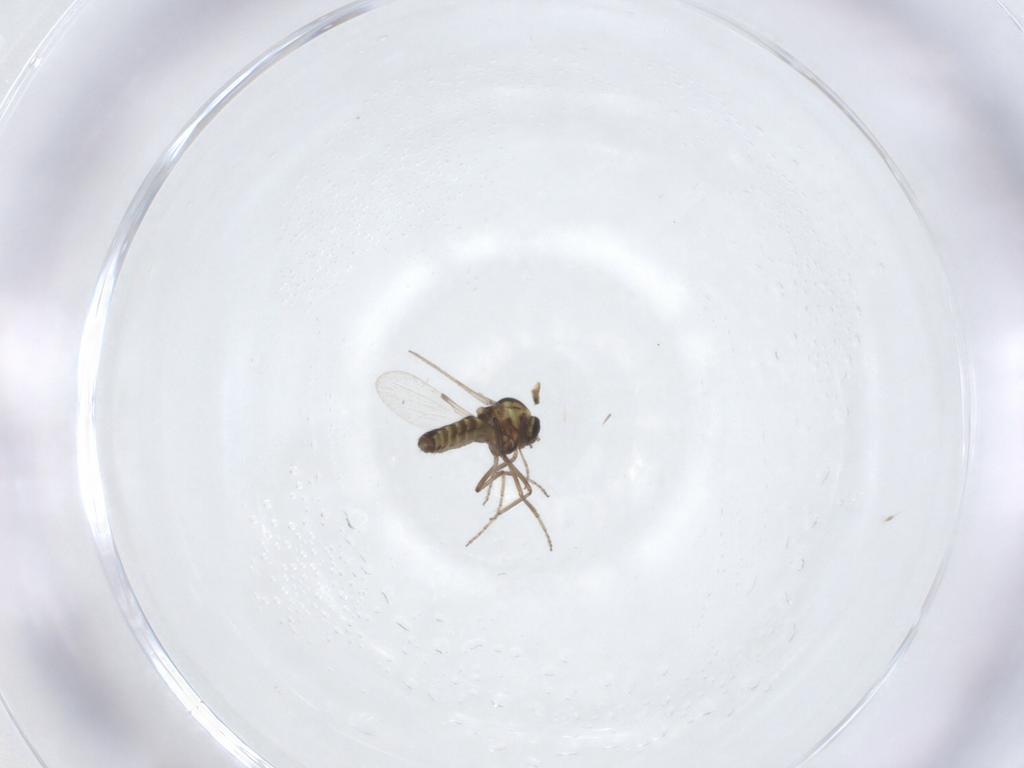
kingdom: Animalia
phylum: Arthropoda
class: Insecta
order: Diptera
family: Ceratopogonidae
